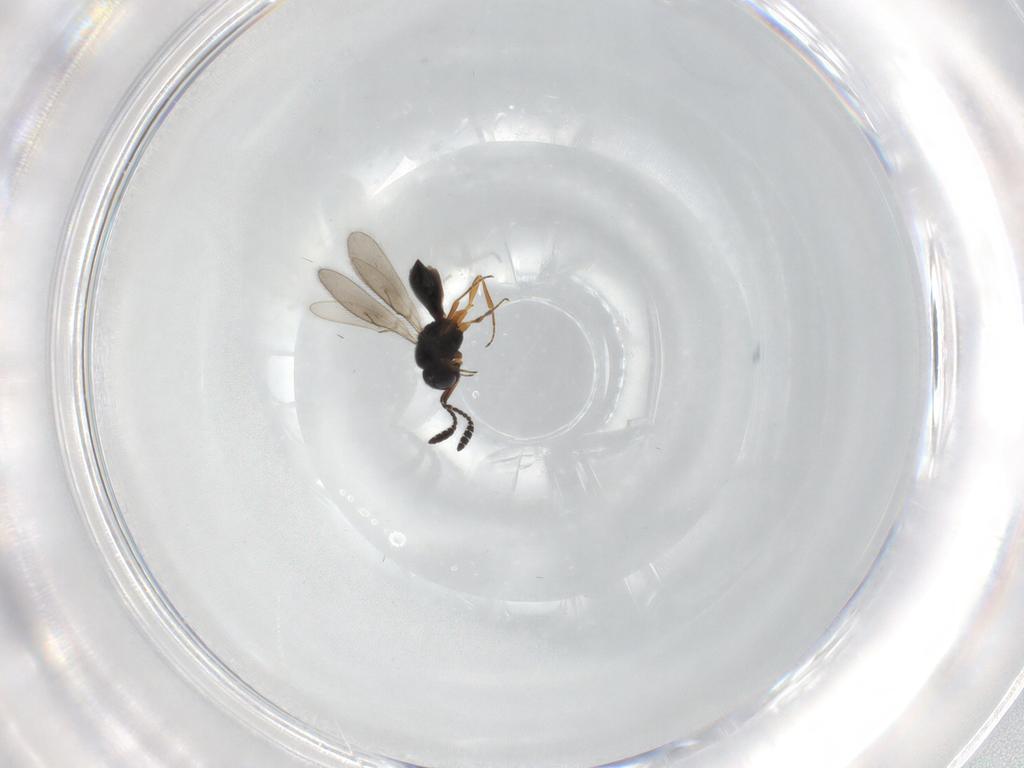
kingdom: Animalia
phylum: Arthropoda
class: Insecta
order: Hymenoptera
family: Scelionidae
